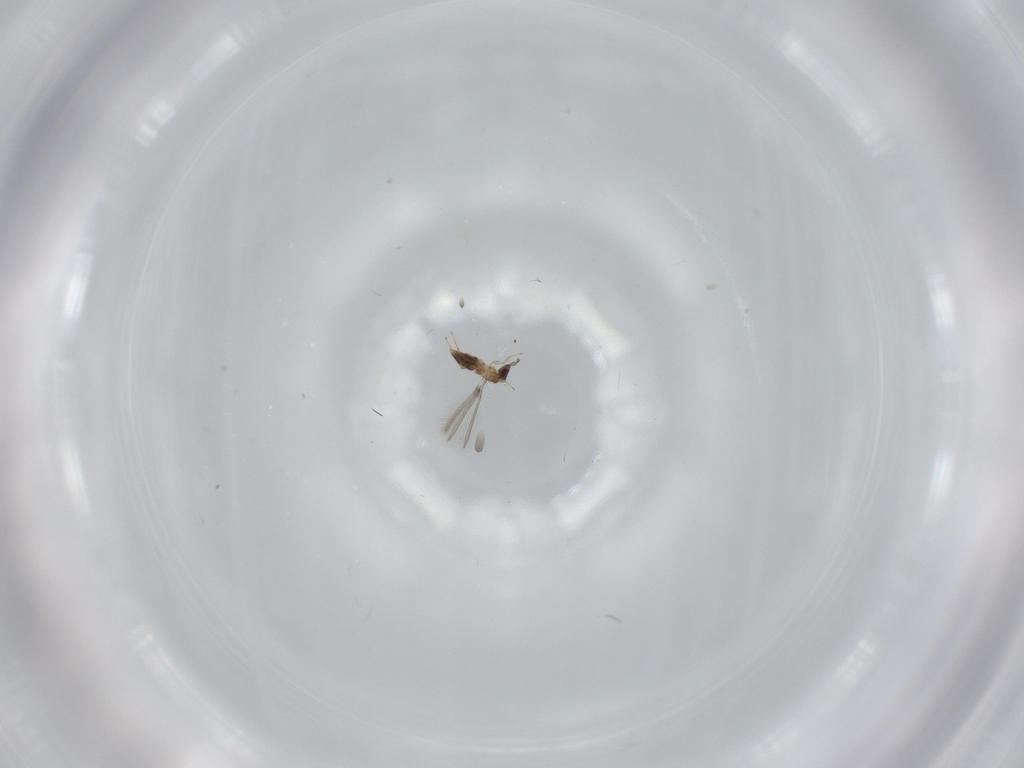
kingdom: Animalia
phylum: Arthropoda
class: Insecta
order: Hymenoptera
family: Mymaridae
